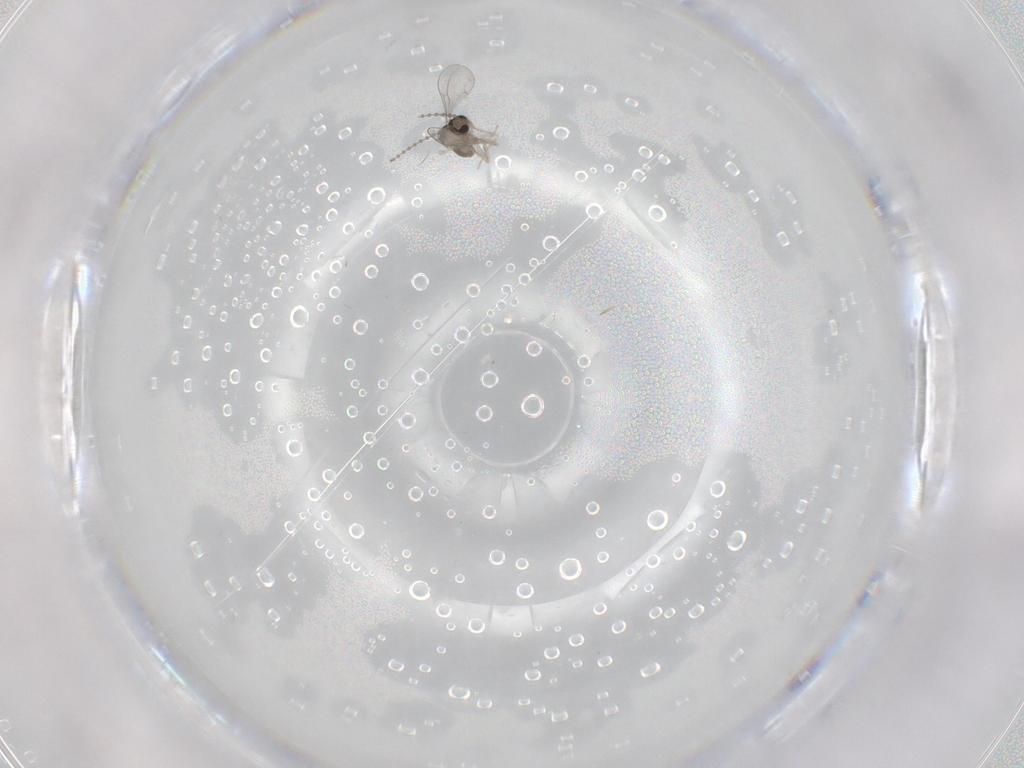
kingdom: Animalia
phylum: Arthropoda
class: Insecta
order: Diptera
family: Cecidomyiidae
